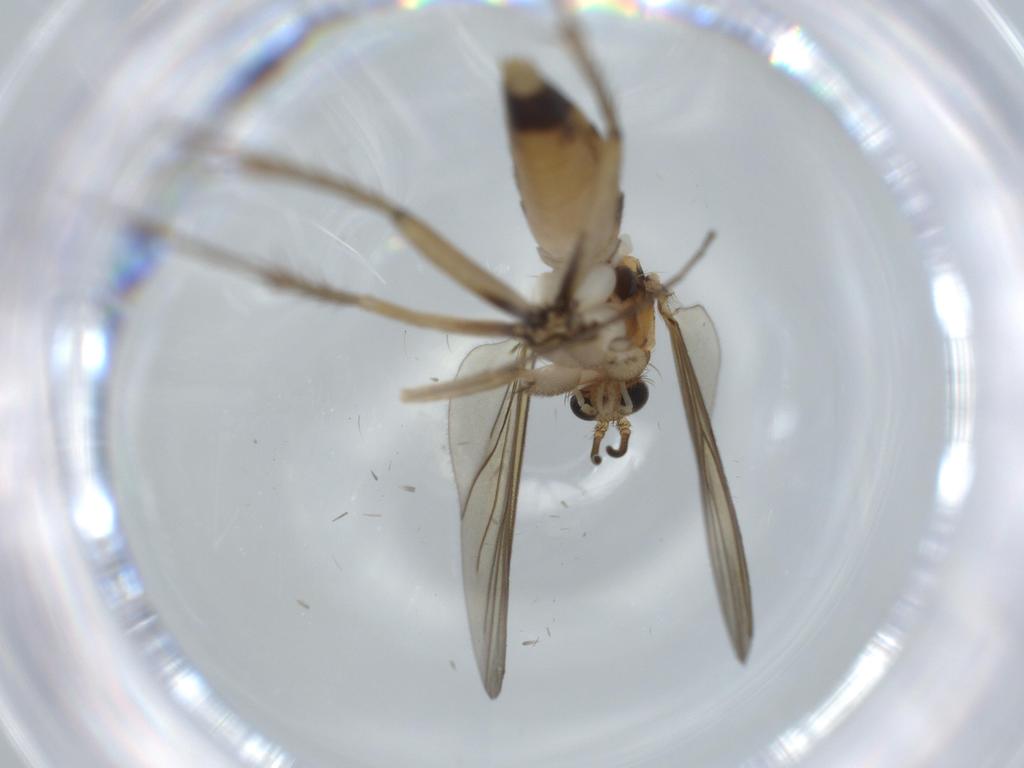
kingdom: Animalia
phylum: Arthropoda
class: Insecta
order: Diptera
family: Mycetophilidae
